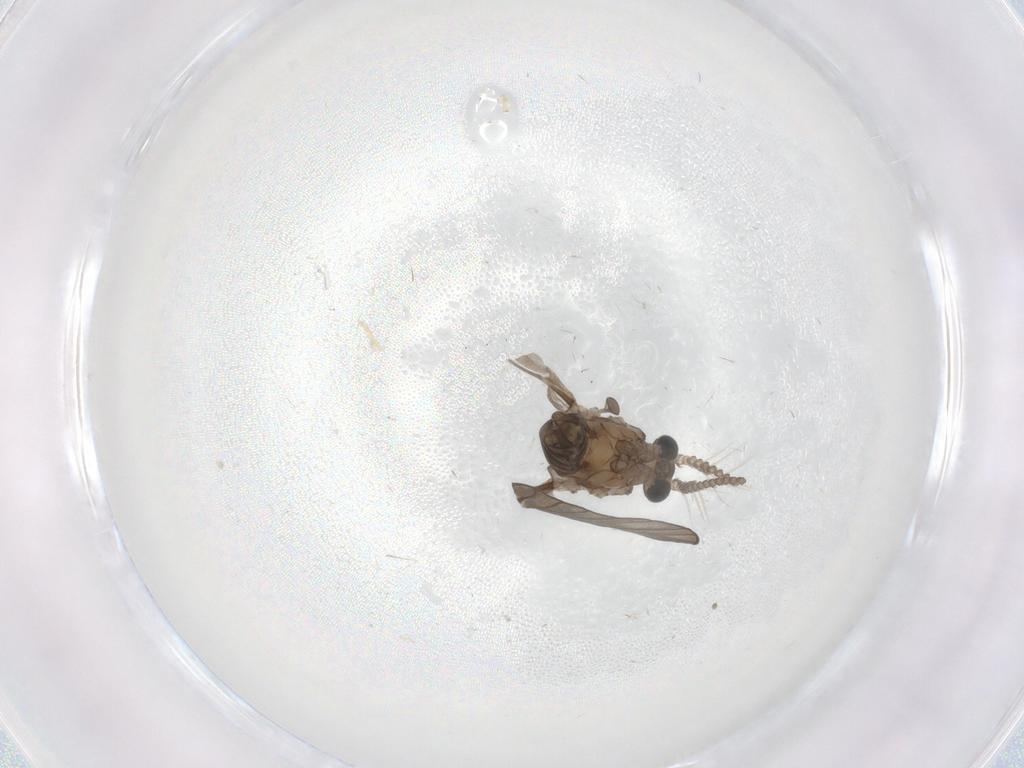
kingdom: Animalia
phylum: Arthropoda
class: Insecta
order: Diptera
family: Psychodidae
